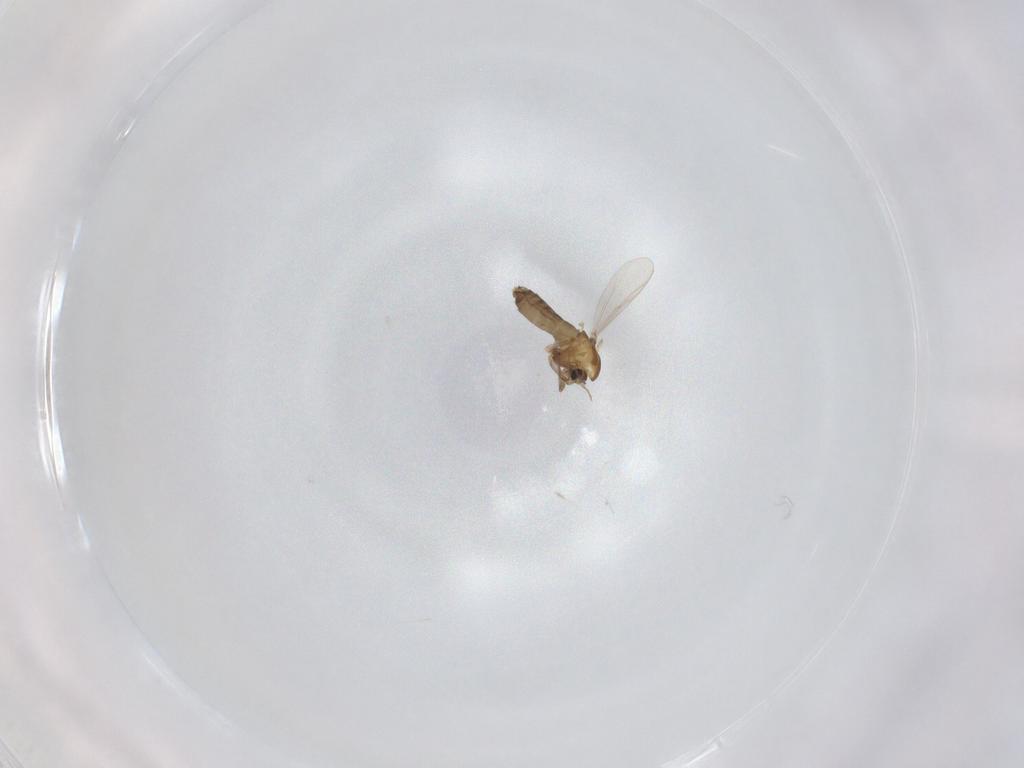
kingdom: Animalia
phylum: Arthropoda
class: Insecta
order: Diptera
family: Chironomidae
